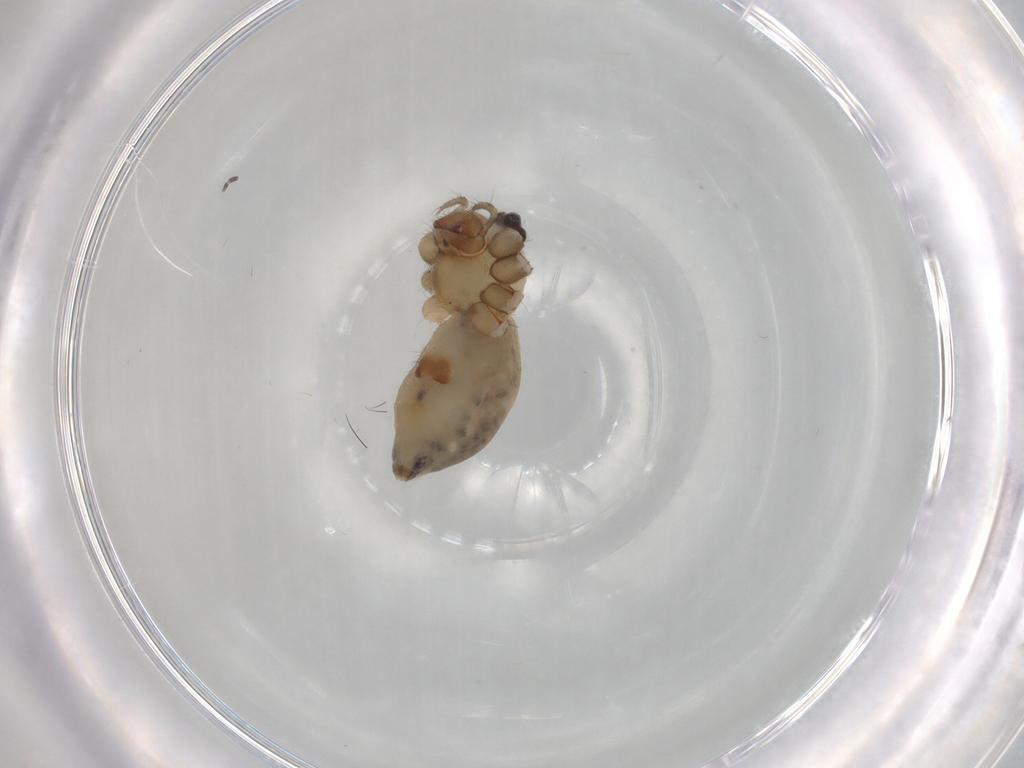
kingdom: Animalia
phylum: Arthropoda
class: Arachnida
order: Araneae
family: Pholcidae
